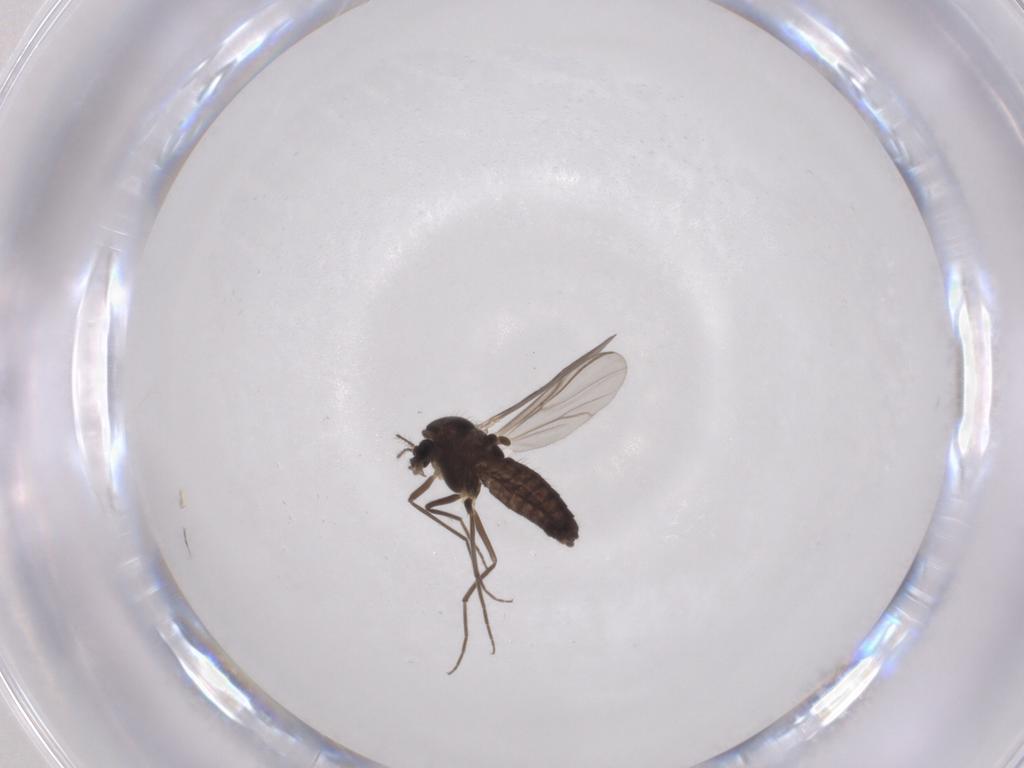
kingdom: Animalia
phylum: Arthropoda
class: Insecta
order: Diptera
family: Chironomidae
